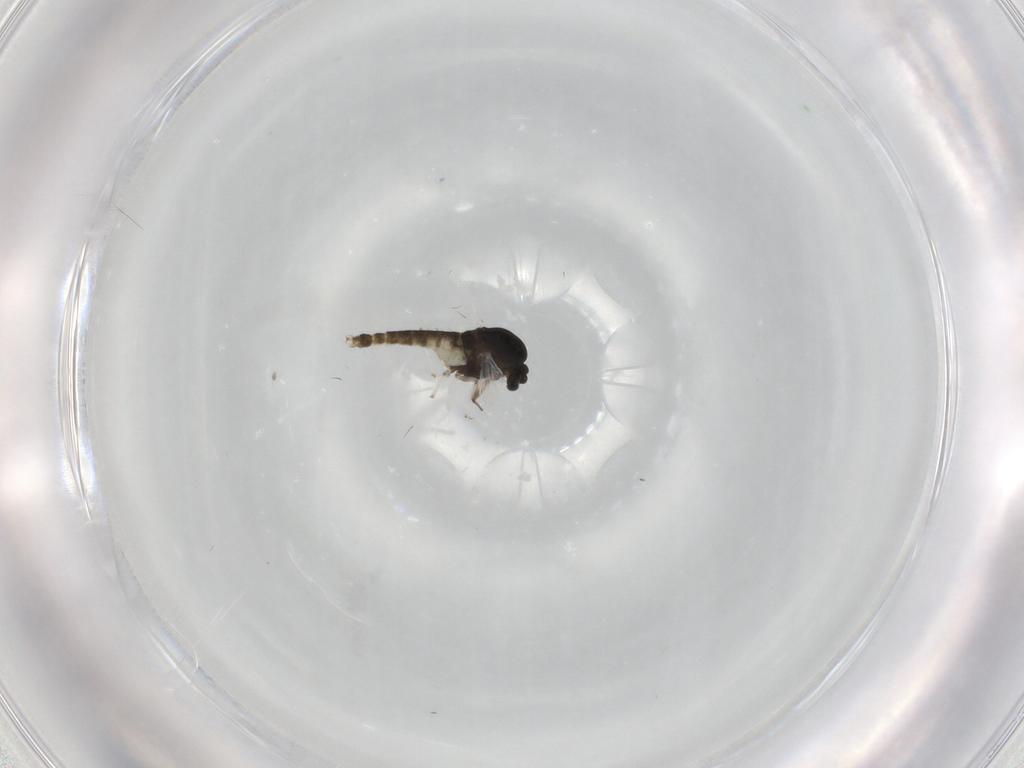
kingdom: Animalia
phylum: Arthropoda
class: Insecta
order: Diptera
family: Chironomidae
